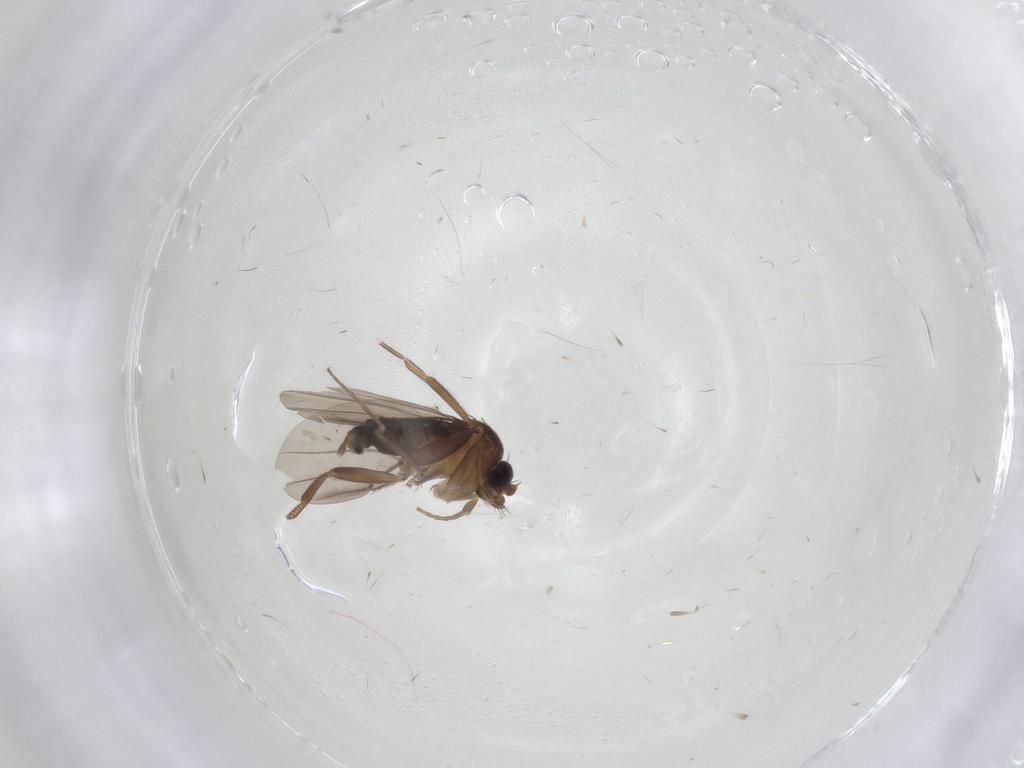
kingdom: Animalia
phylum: Arthropoda
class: Insecta
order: Diptera
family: Phoridae
